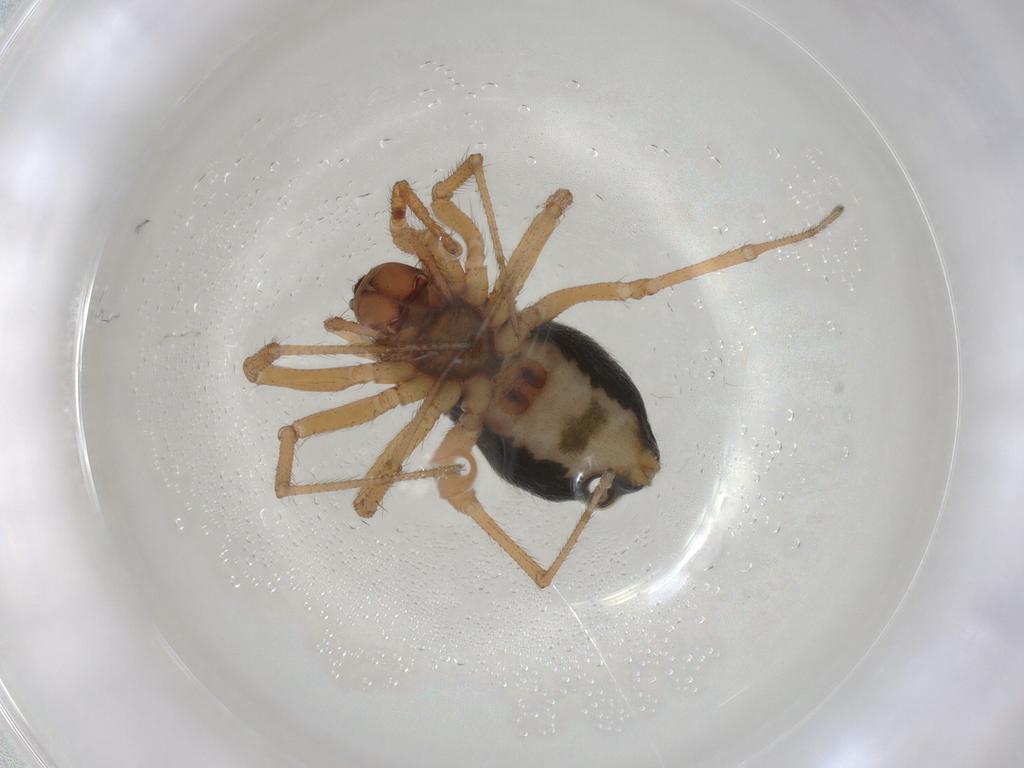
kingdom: Animalia
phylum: Arthropoda
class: Arachnida
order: Araneae
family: Linyphiidae
